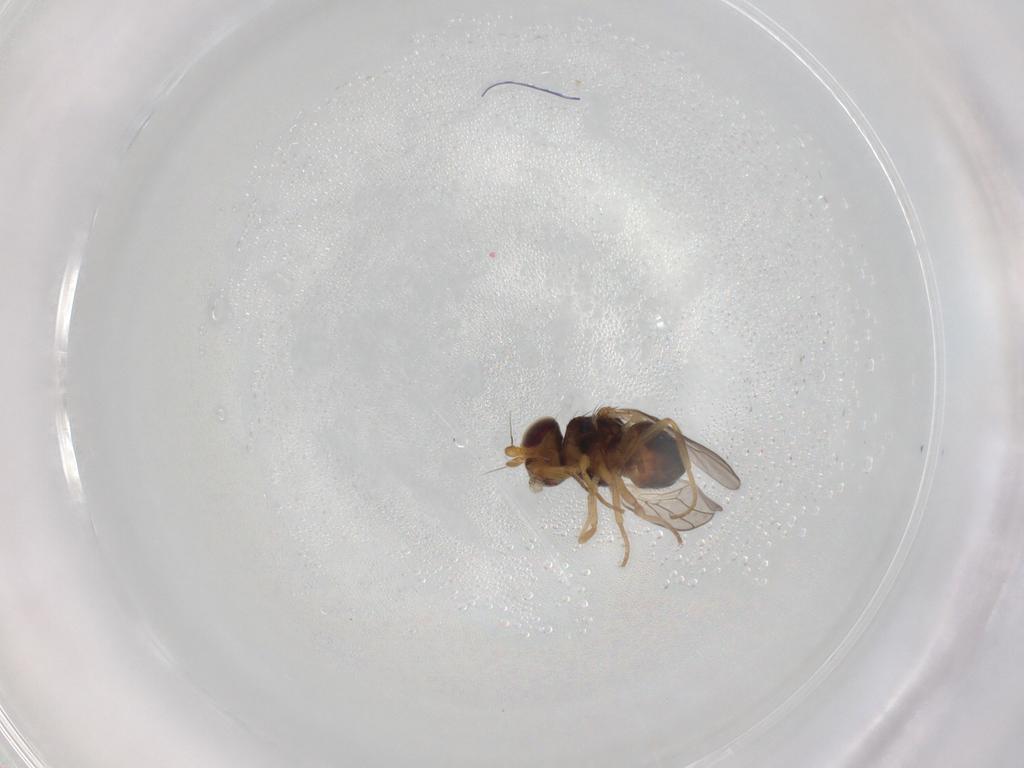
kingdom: Animalia
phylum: Arthropoda
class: Insecta
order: Diptera
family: Chloropidae
